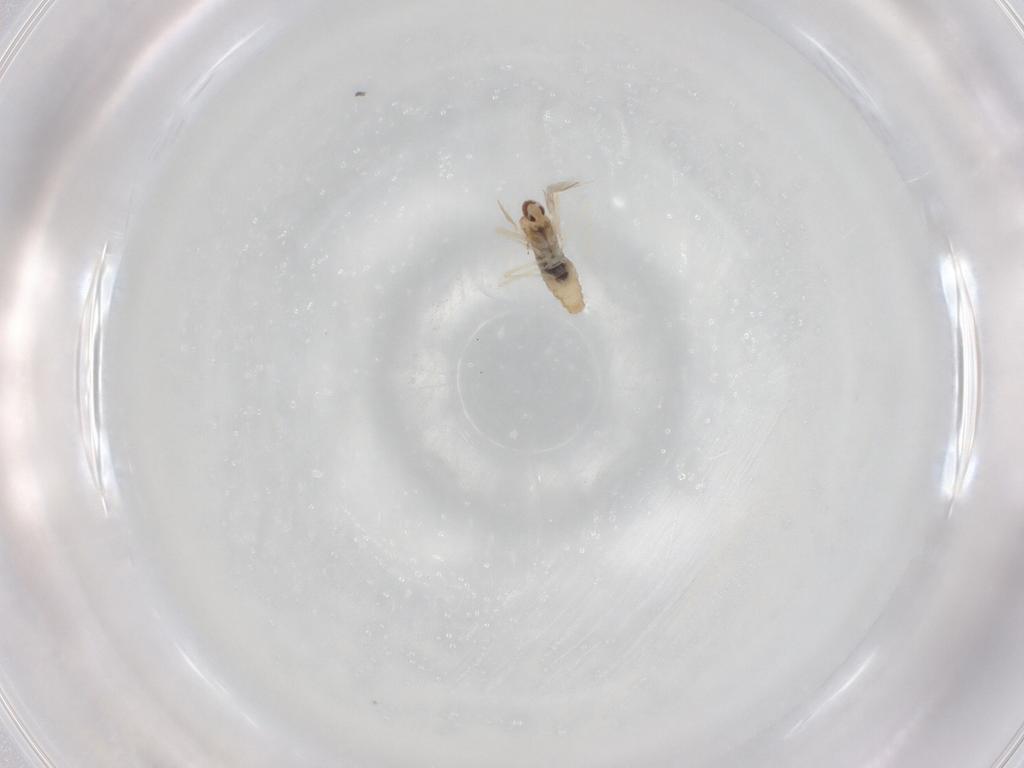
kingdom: Animalia
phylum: Arthropoda
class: Insecta
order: Diptera
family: Cecidomyiidae
